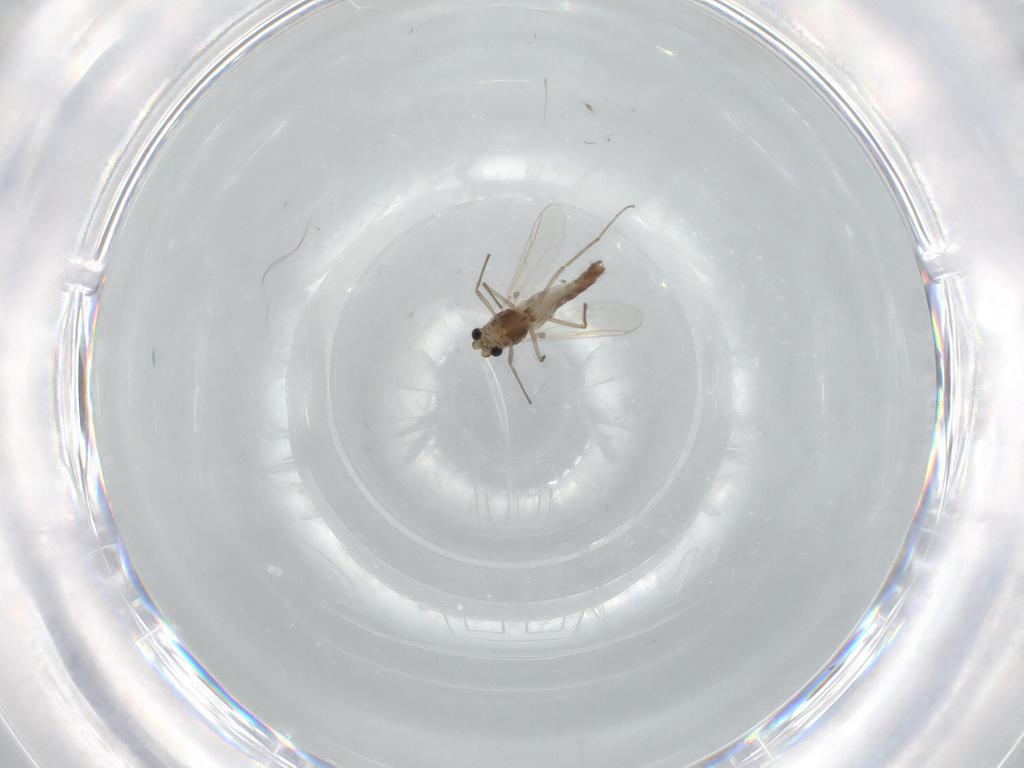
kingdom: Animalia
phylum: Arthropoda
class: Insecta
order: Diptera
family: Chironomidae
